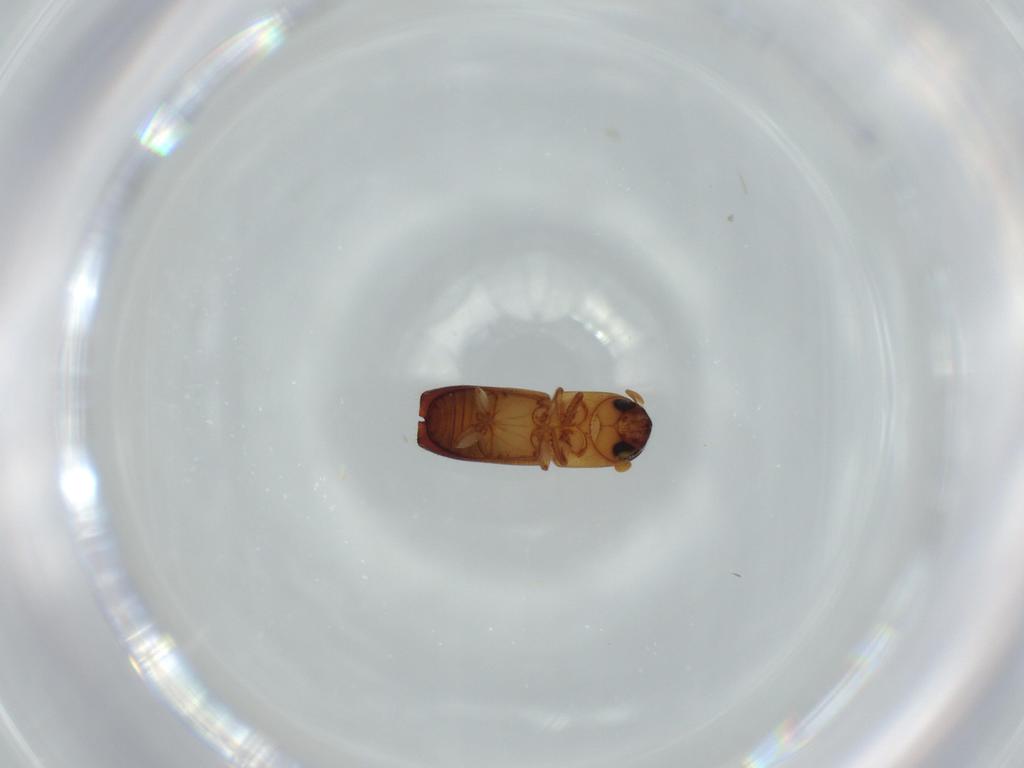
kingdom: Animalia
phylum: Arthropoda
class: Insecta
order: Coleoptera
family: Curculionidae
